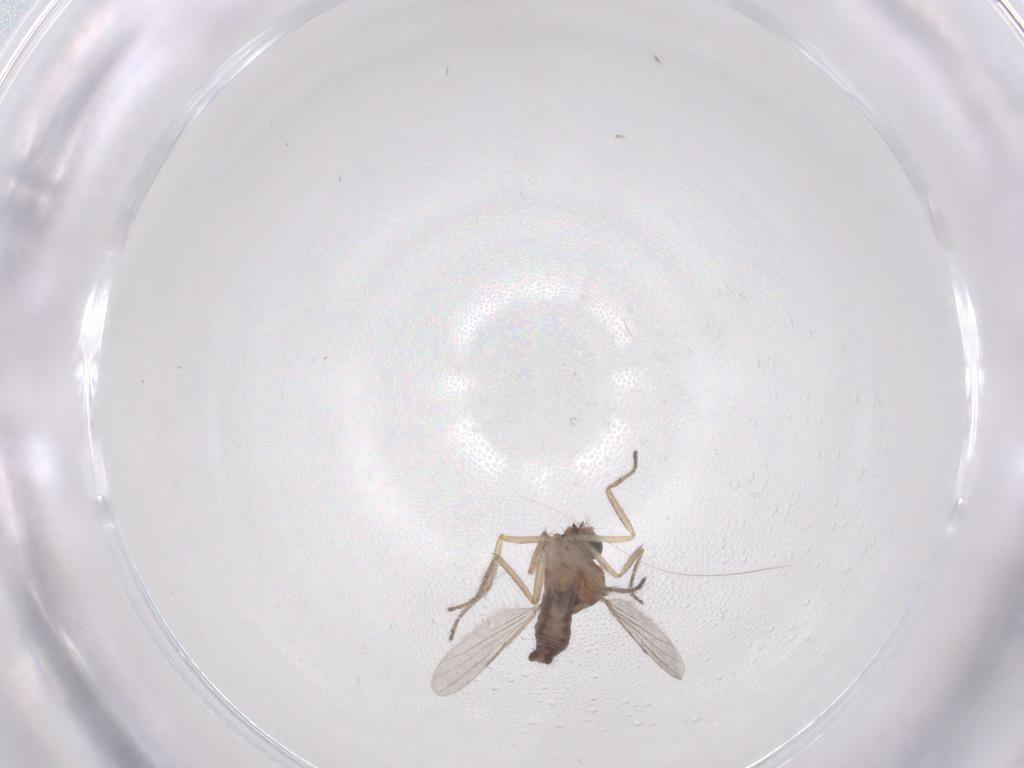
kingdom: Animalia
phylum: Arthropoda
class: Insecta
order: Diptera
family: Ceratopogonidae
